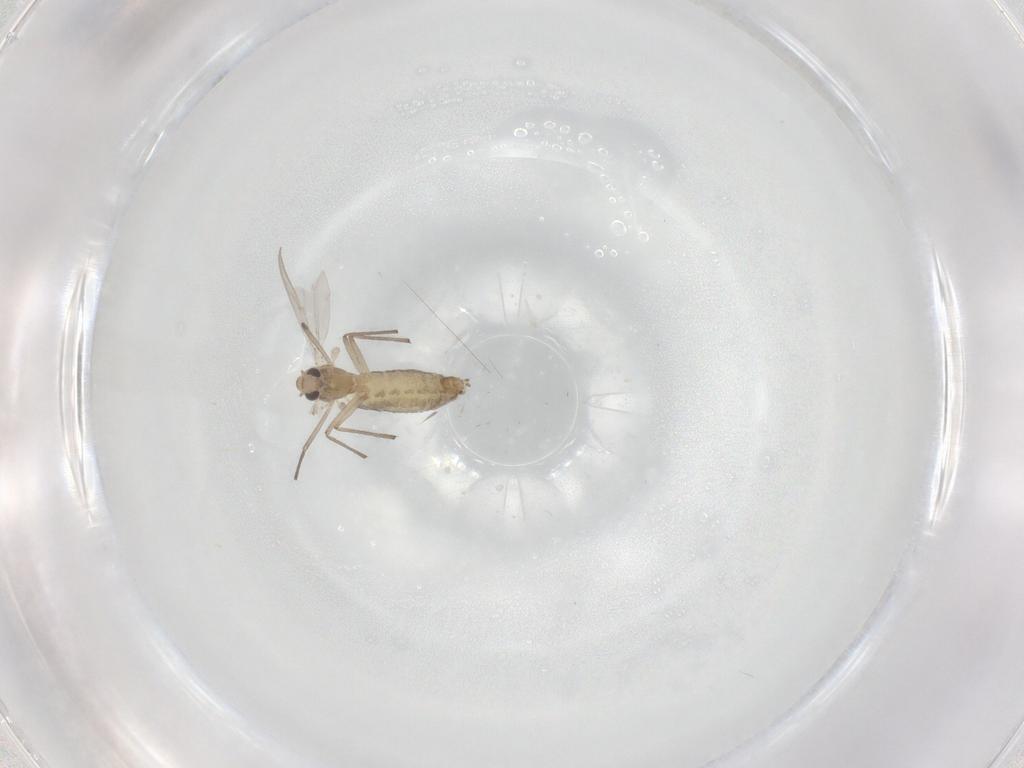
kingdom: Animalia
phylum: Arthropoda
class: Insecta
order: Diptera
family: Chironomidae
